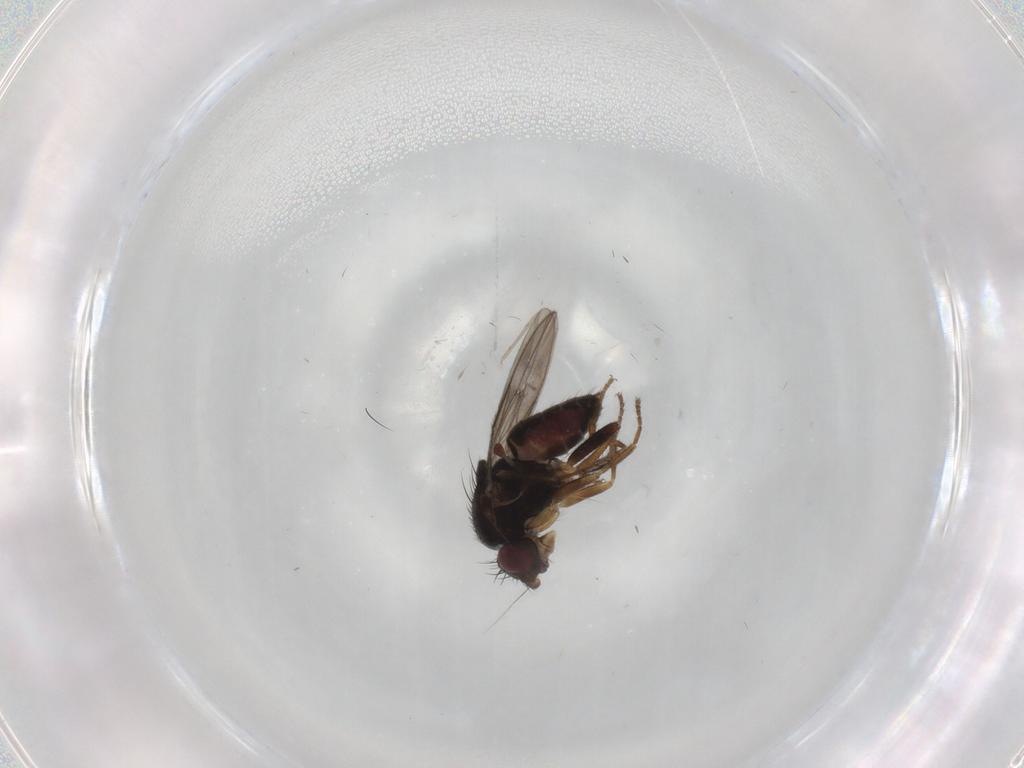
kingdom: Animalia
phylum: Arthropoda
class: Insecta
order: Diptera
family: Sphaeroceridae
